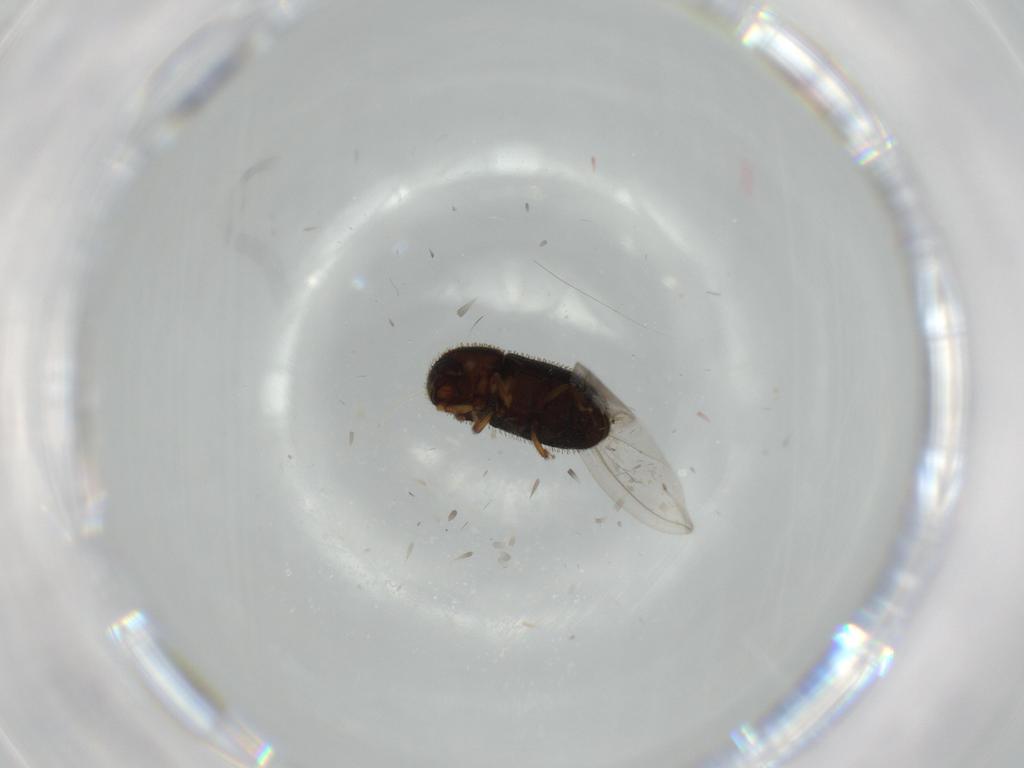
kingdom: Animalia
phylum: Arthropoda
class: Insecta
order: Coleoptera
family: Curculionidae
